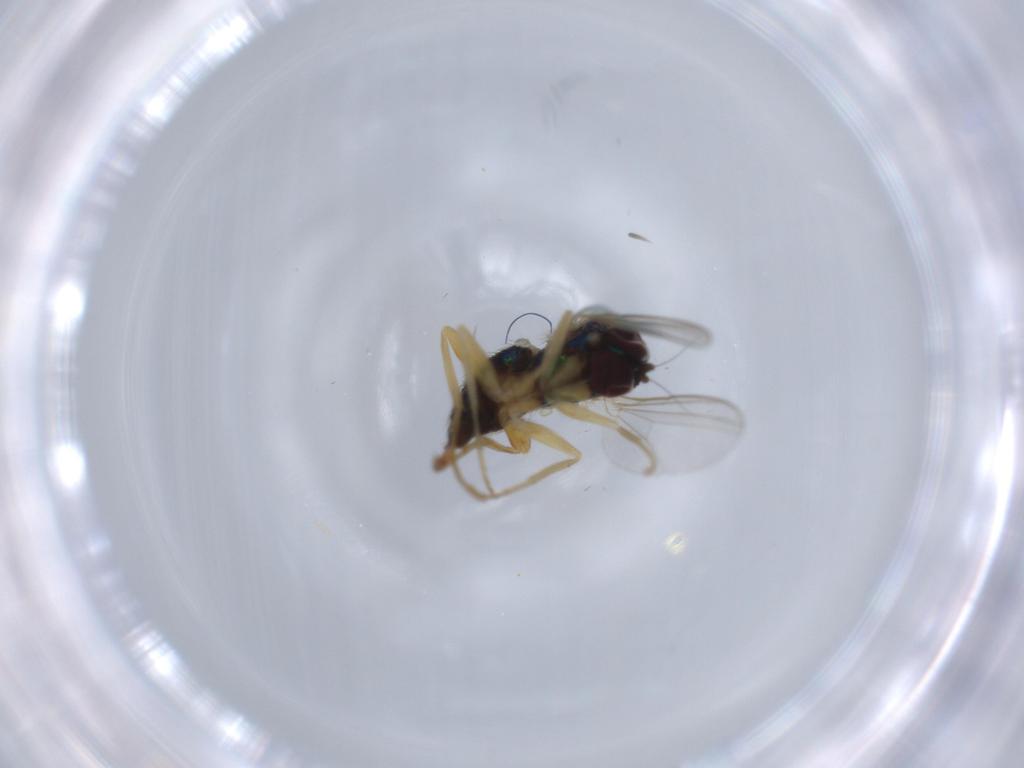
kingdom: Animalia
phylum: Arthropoda
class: Insecta
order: Diptera
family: Dolichopodidae
